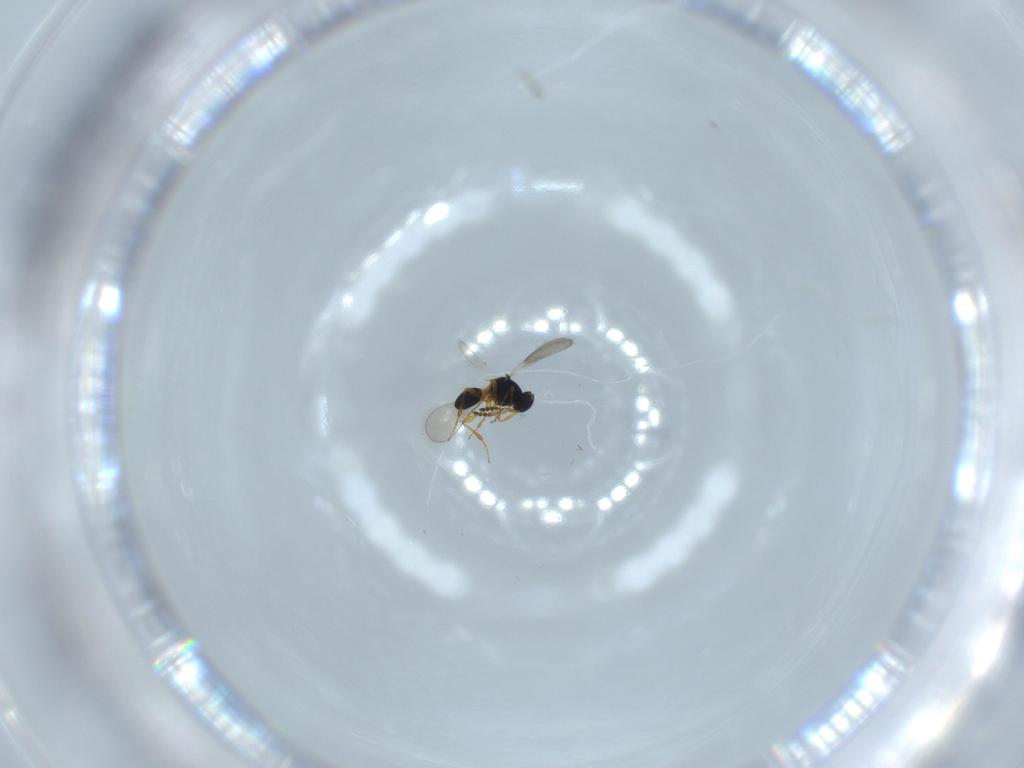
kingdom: Animalia
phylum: Arthropoda
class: Insecta
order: Hymenoptera
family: Platygastridae
